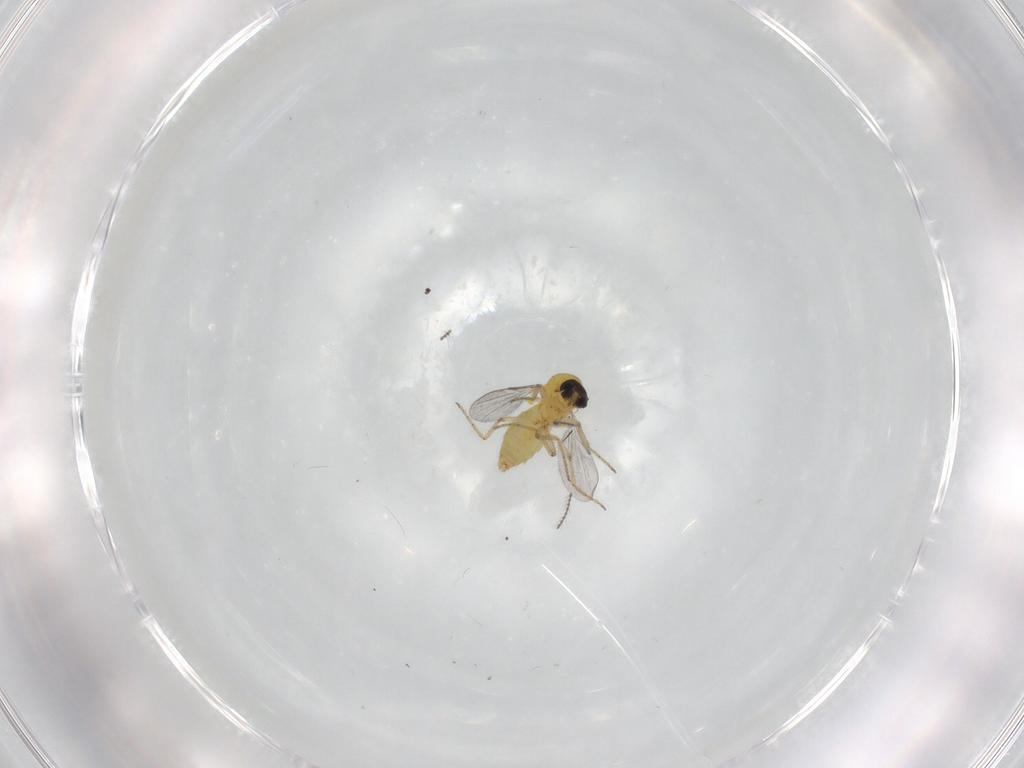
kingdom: Animalia
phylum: Arthropoda
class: Insecta
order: Diptera
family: Ceratopogonidae
